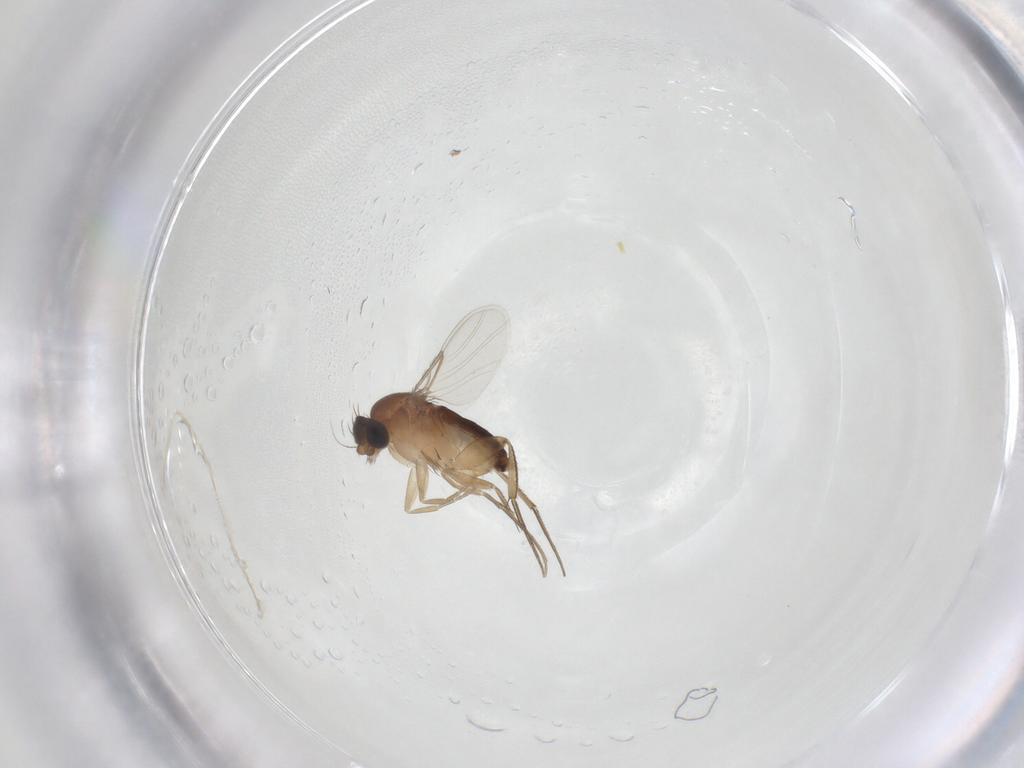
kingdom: Animalia
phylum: Arthropoda
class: Insecta
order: Diptera
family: Phoridae
